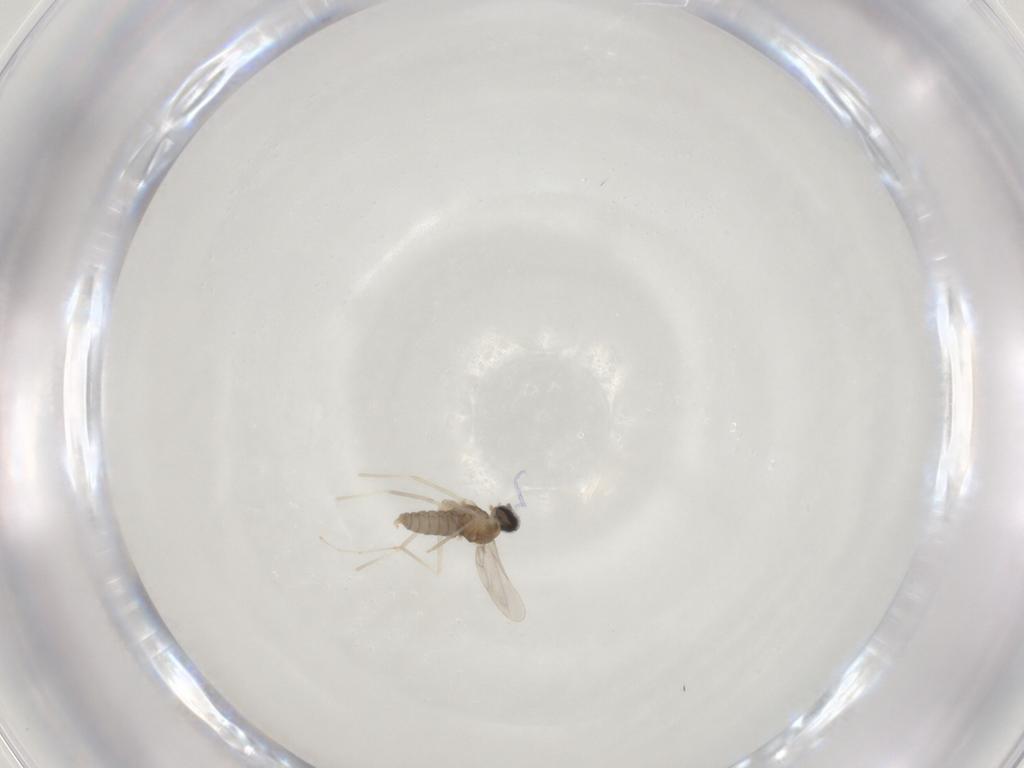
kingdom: Animalia
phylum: Arthropoda
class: Insecta
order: Diptera
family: Cecidomyiidae
